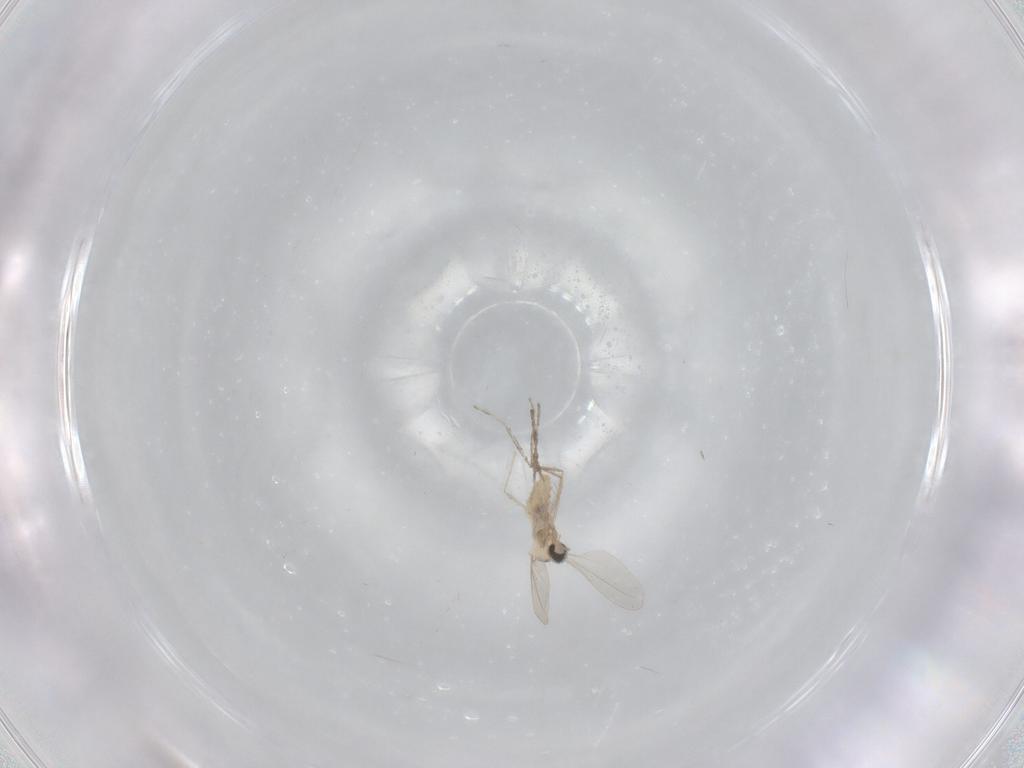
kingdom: Animalia
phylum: Arthropoda
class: Insecta
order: Diptera
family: Cecidomyiidae
